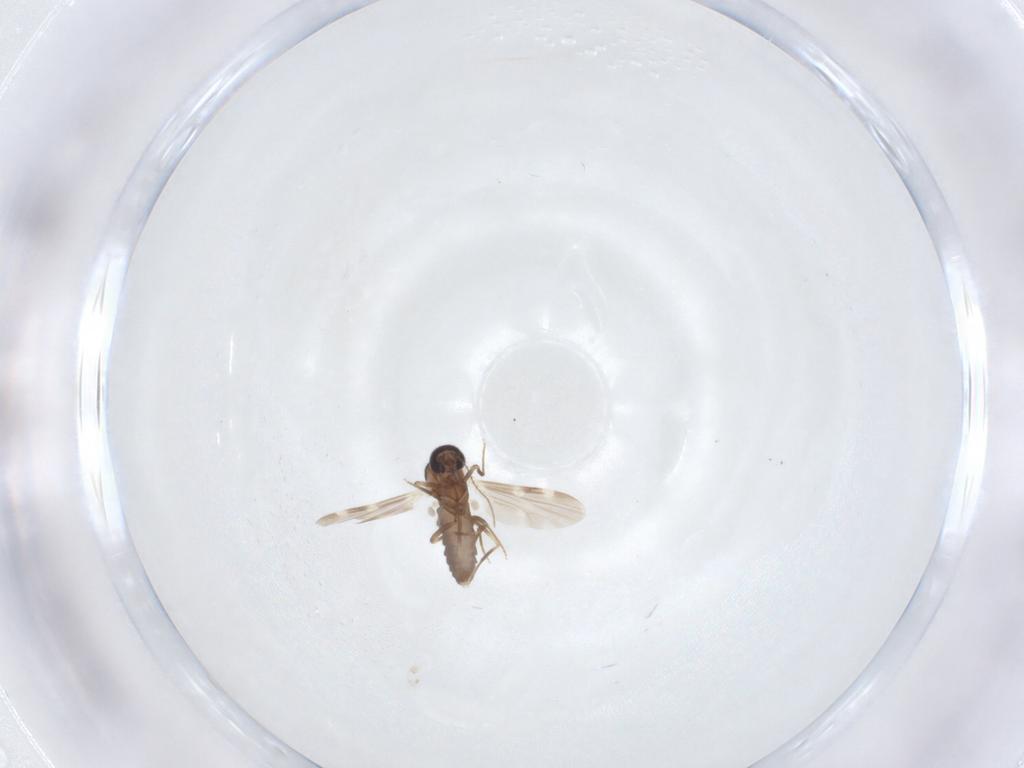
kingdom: Animalia
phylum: Arthropoda
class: Insecta
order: Diptera
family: Ceratopogonidae
